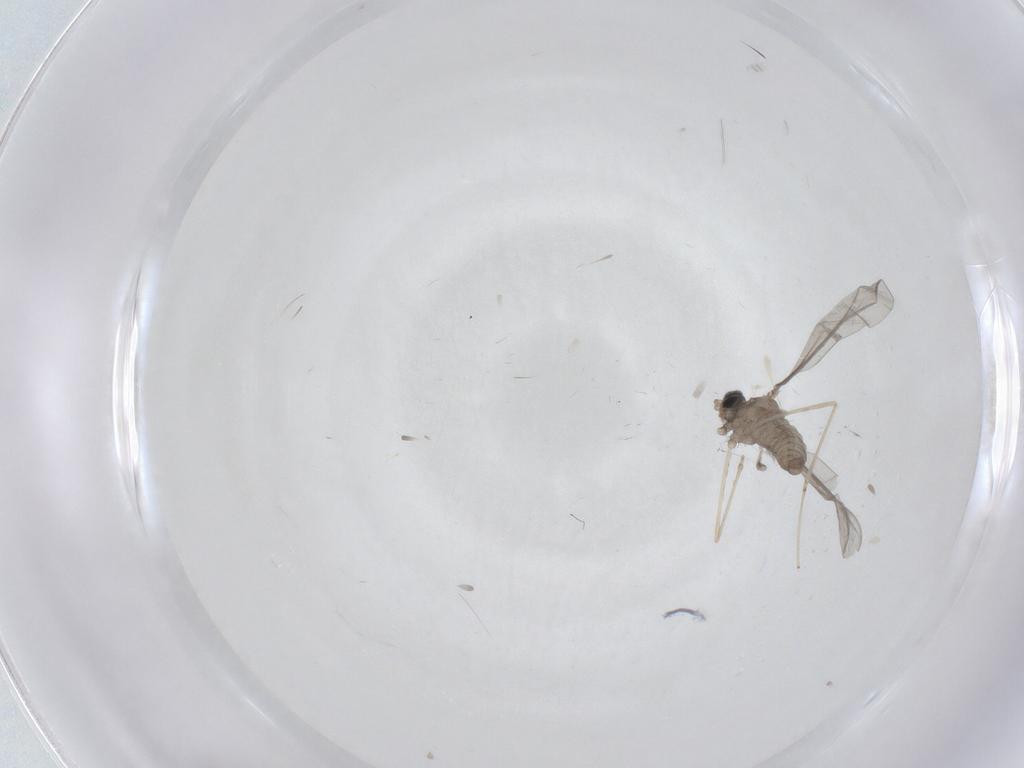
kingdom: Animalia
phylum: Arthropoda
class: Insecta
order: Diptera
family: Cecidomyiidae
